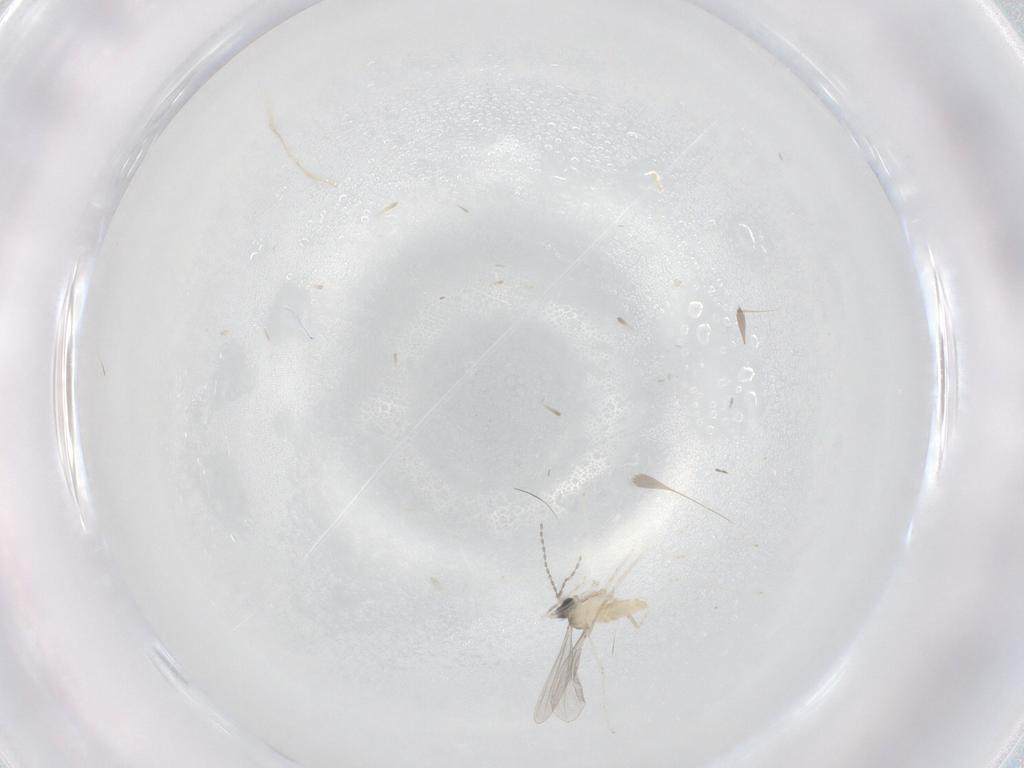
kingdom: Animalia
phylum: Arthropoda
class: Insecta
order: Diptera
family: Cecidomyiidae
